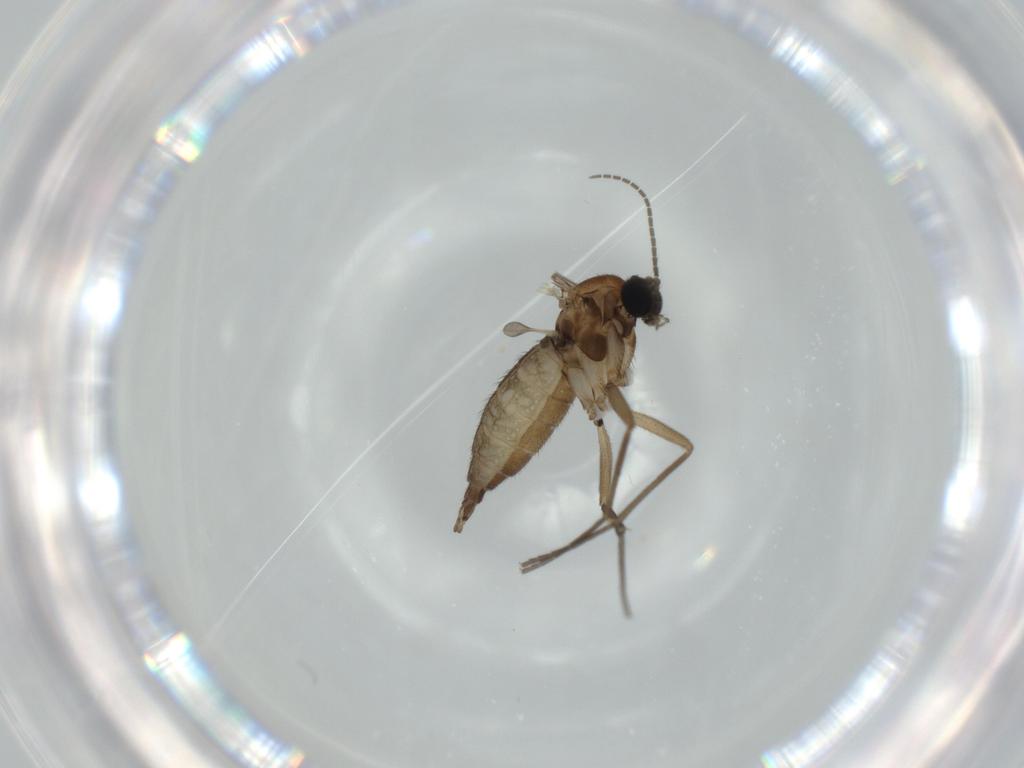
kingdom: Animalia
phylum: Arthropoda
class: Insecta
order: Diptera
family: Sciaridae
